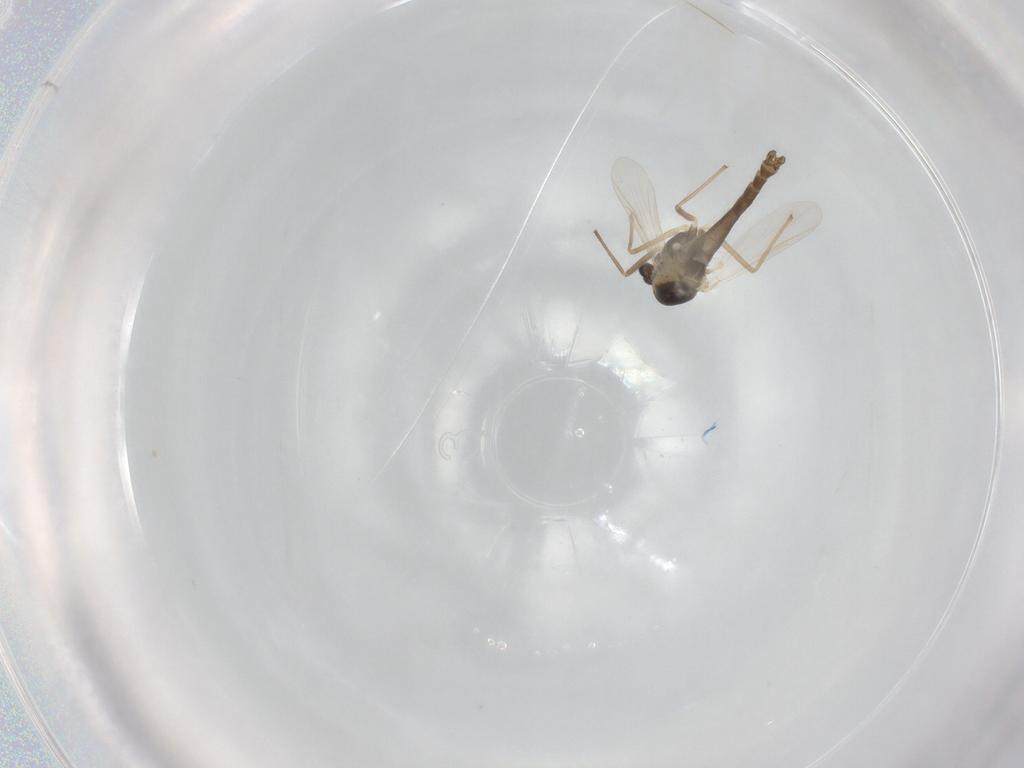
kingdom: Animalia
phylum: Arthropoda
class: Insecta
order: Diptera
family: Chironomidae
